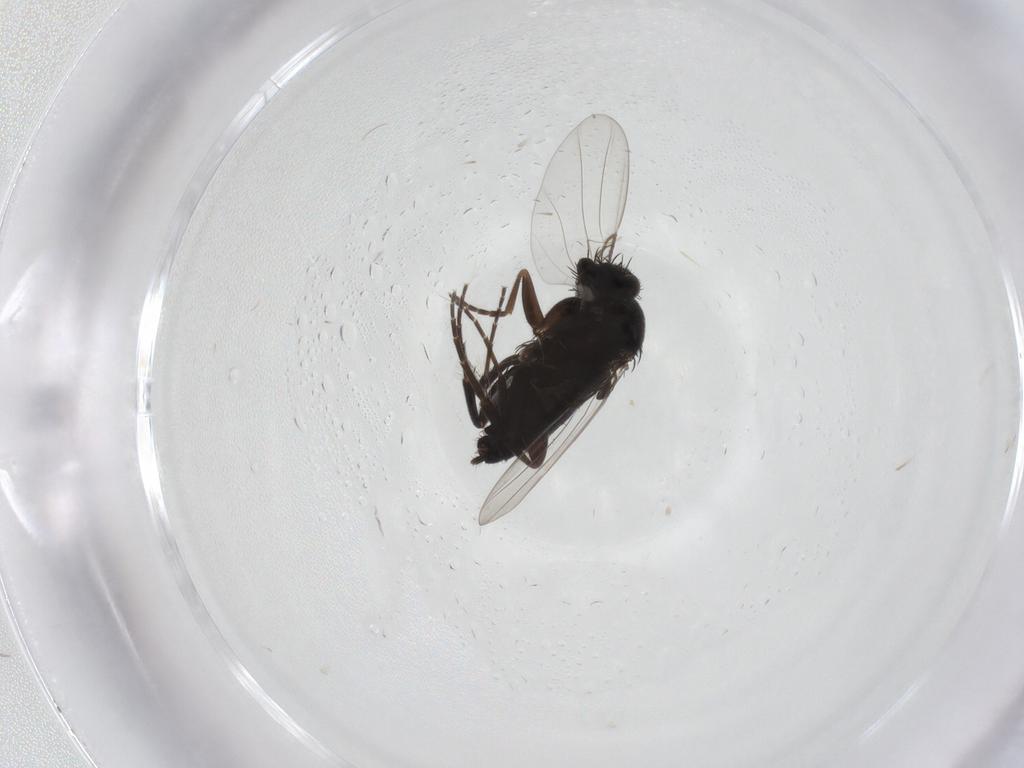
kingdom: Animalia
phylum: Arthropoda
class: Insecta
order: Diptera
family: Phoridae
